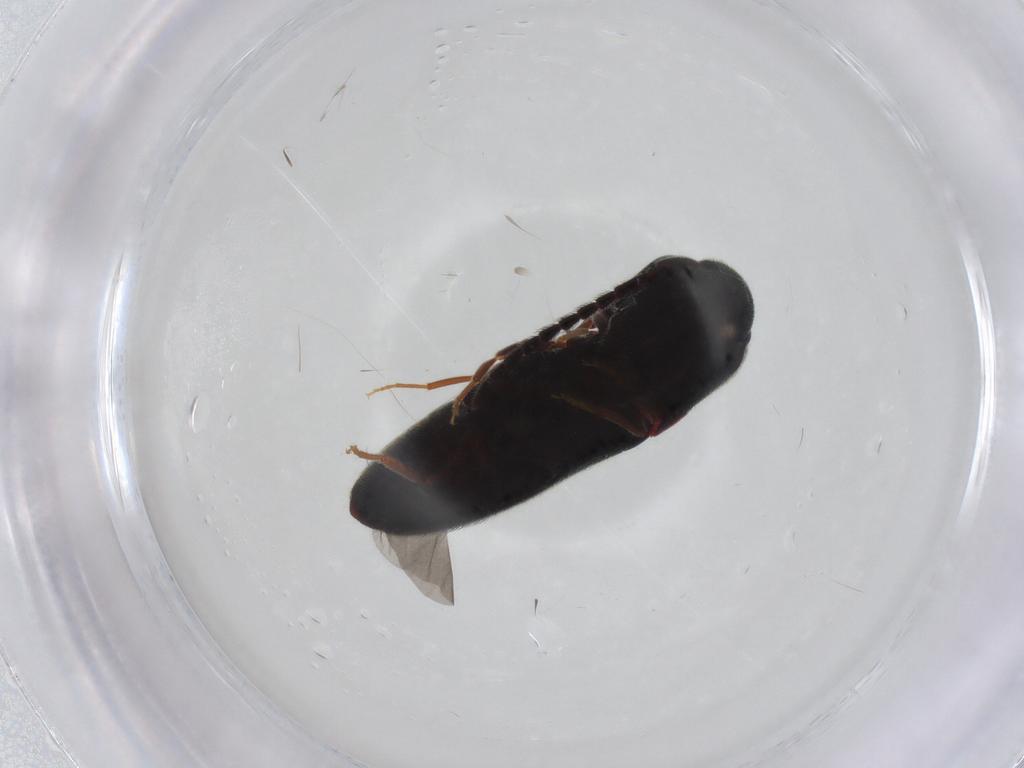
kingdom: Animalia
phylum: Arthropoda
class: Insecta
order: Coleoptera
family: Eucnemidae
